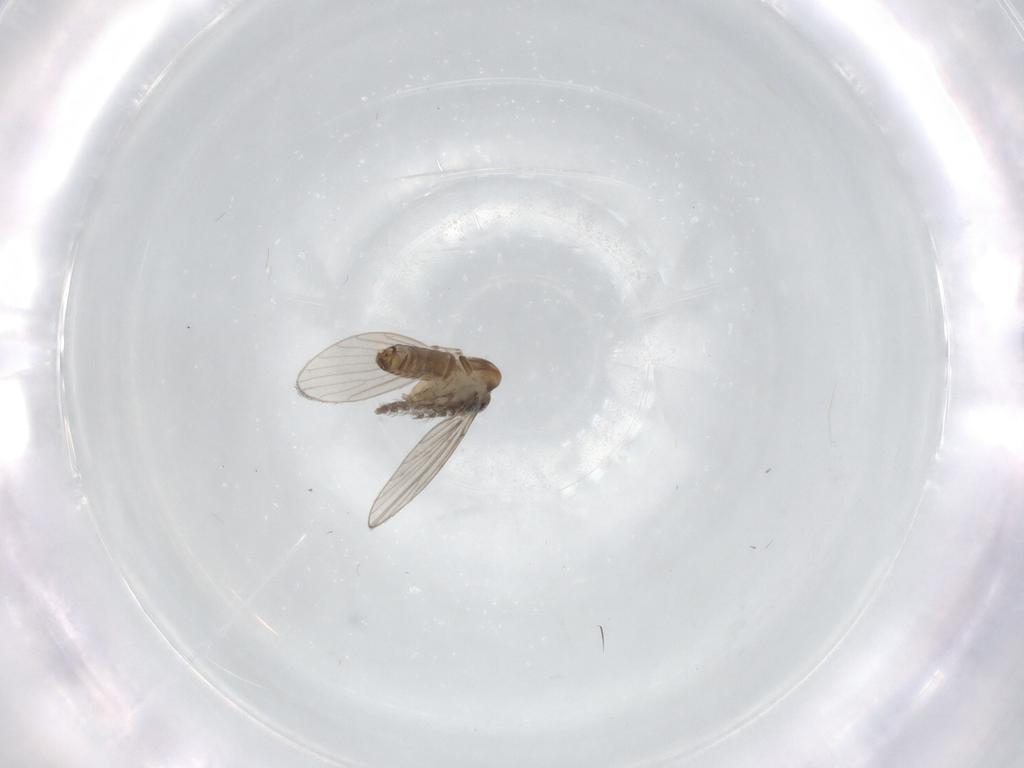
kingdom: Animalia
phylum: Arthropoda
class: Insecta
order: Diptera
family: Psychodidae
